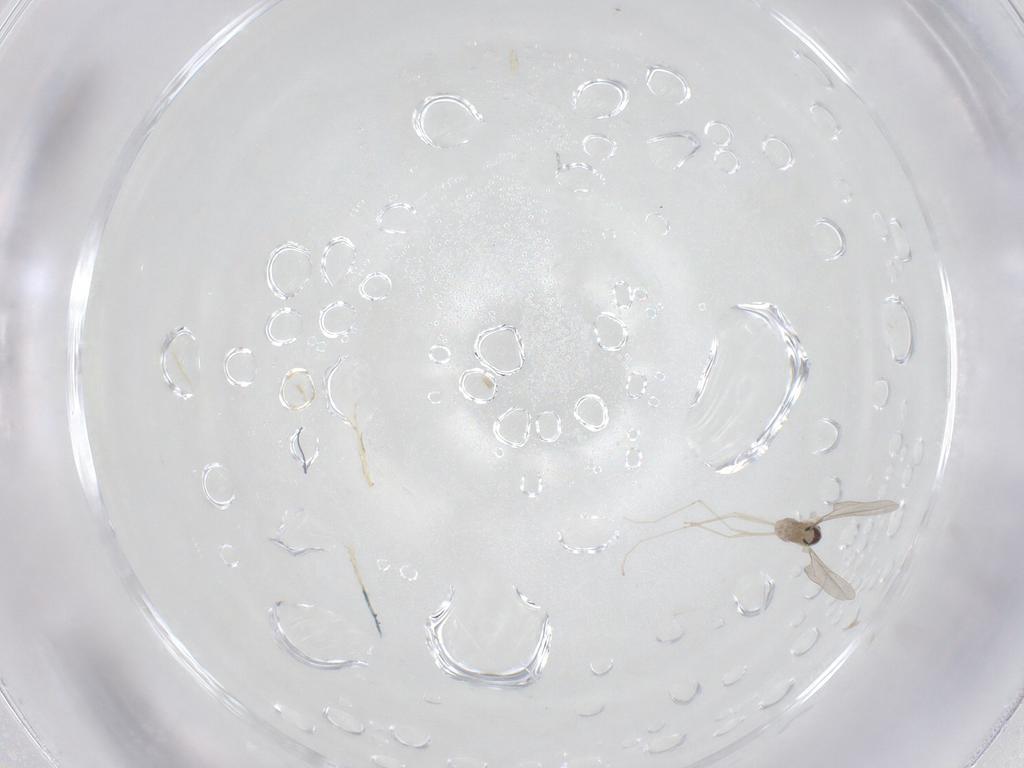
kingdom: Animalia
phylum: Arthropoda
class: Insecta
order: Diptera
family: Cecidomyiidae
